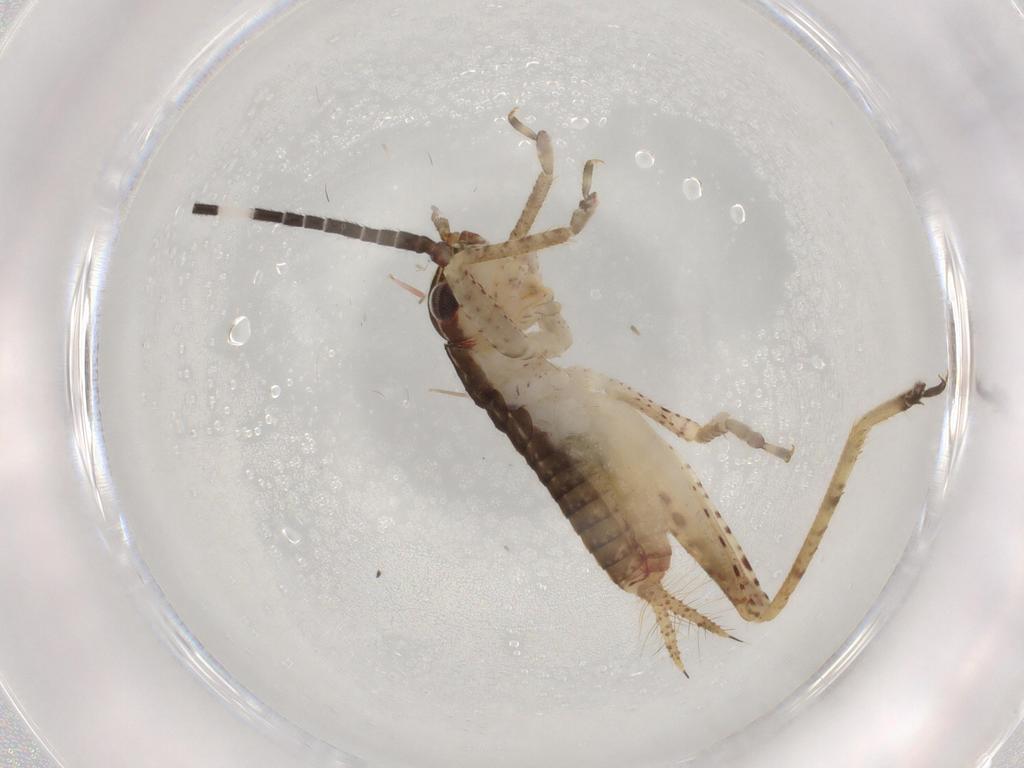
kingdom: Animalia
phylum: Arthropoda
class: Insecta
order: Orthoptera
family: Gryllidae
